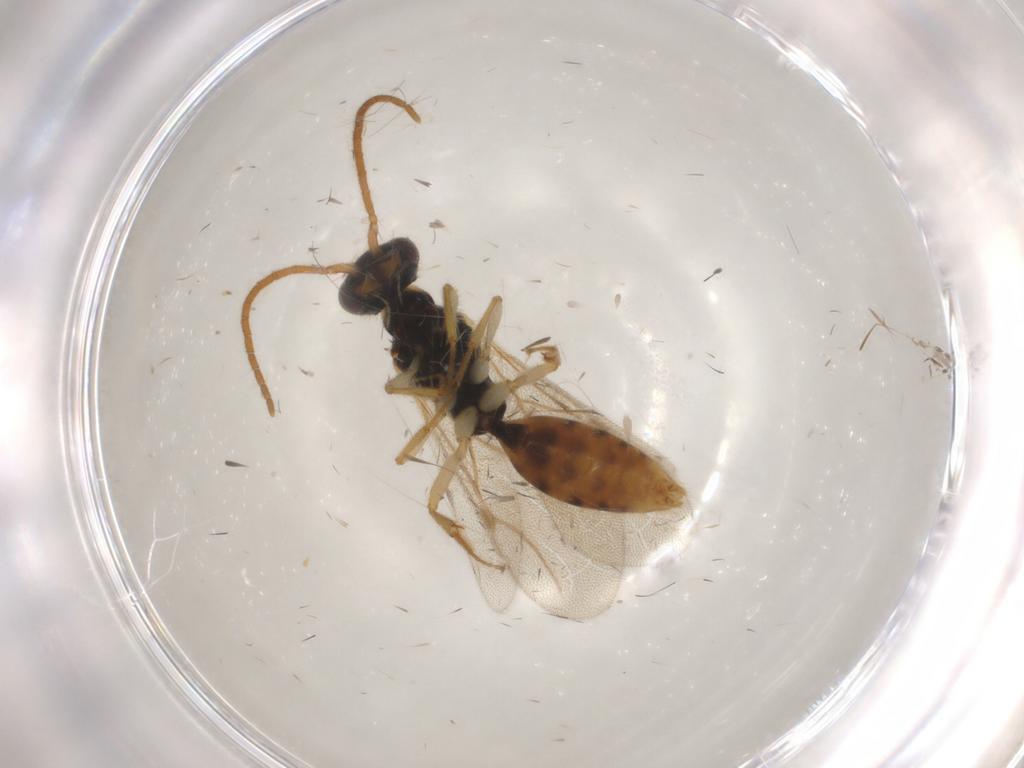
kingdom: Animalia
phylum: Arthropoda
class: Insecta
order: Hymenoptera
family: Bethylidae
